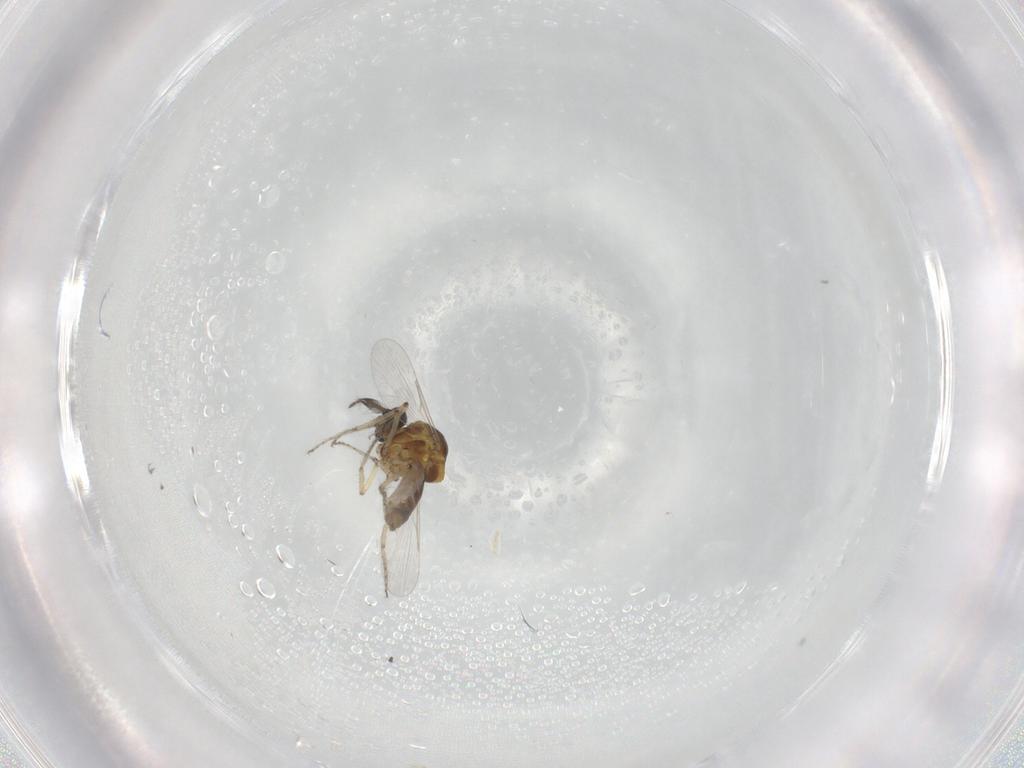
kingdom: Animalia
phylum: Arthropoda
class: Insecta
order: Diptera
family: Ceratopogonidae
